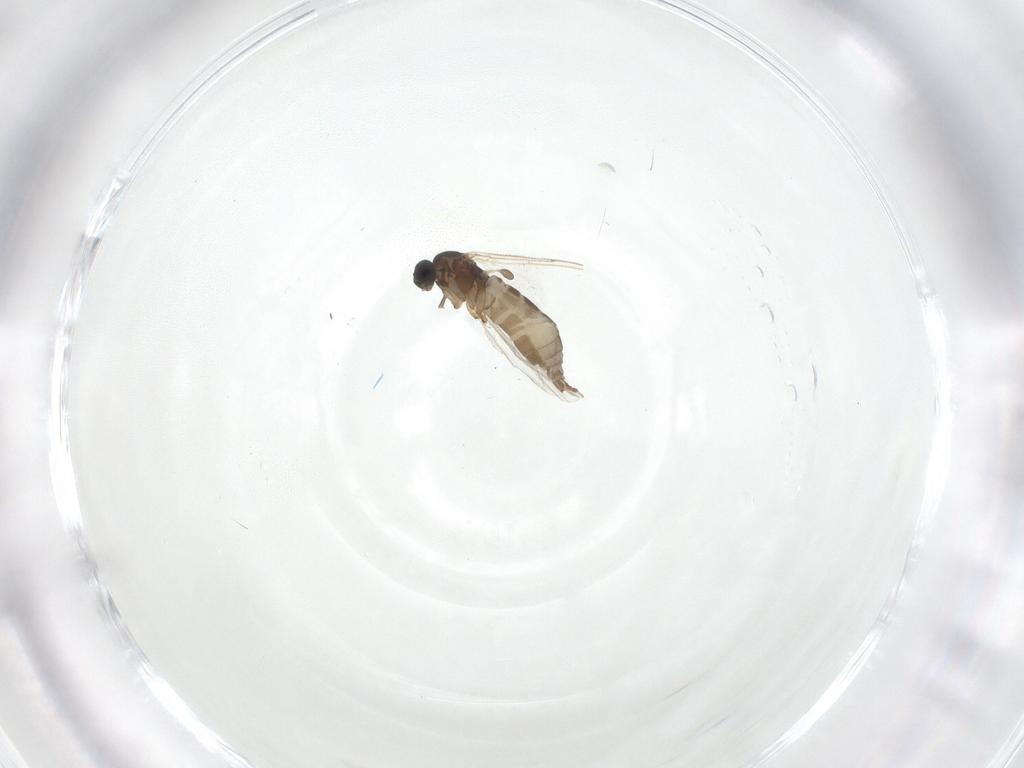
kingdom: Animalia
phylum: Arthropoda
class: Insecta
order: Diptera
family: Sciaridae
